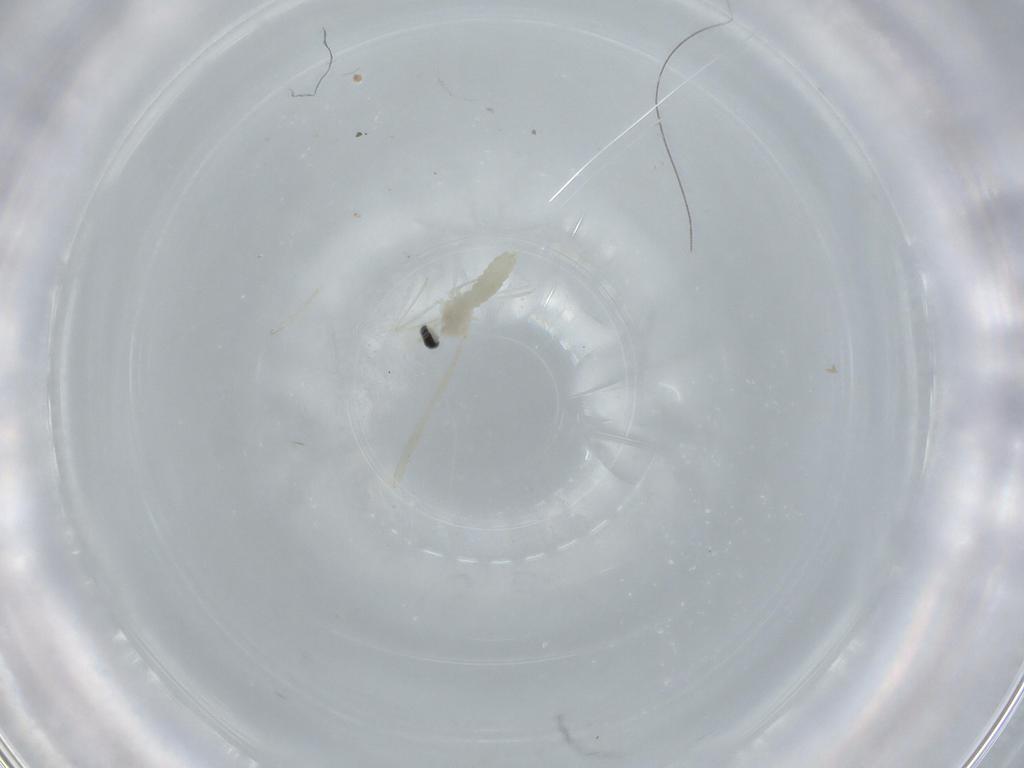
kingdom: Animalia
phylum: Arthropoda
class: Insecta
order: Diptera
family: Cecidomyiidae
